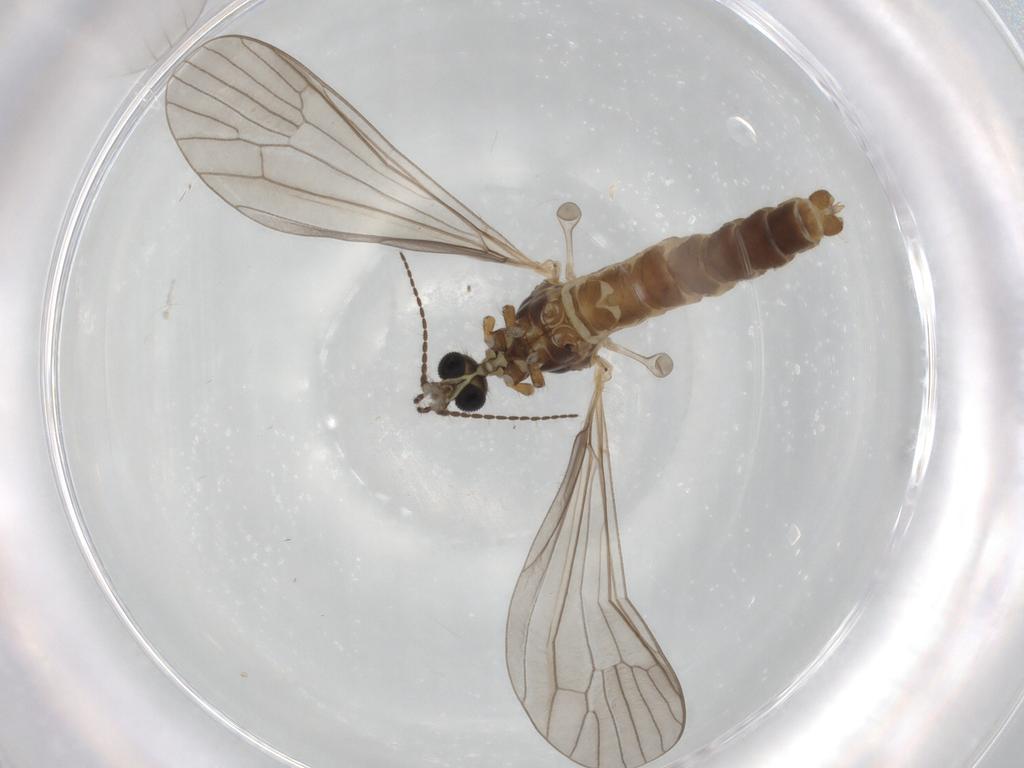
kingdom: Animalia
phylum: Arthropoda
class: Insecta
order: Diptera
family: Limoniidae
